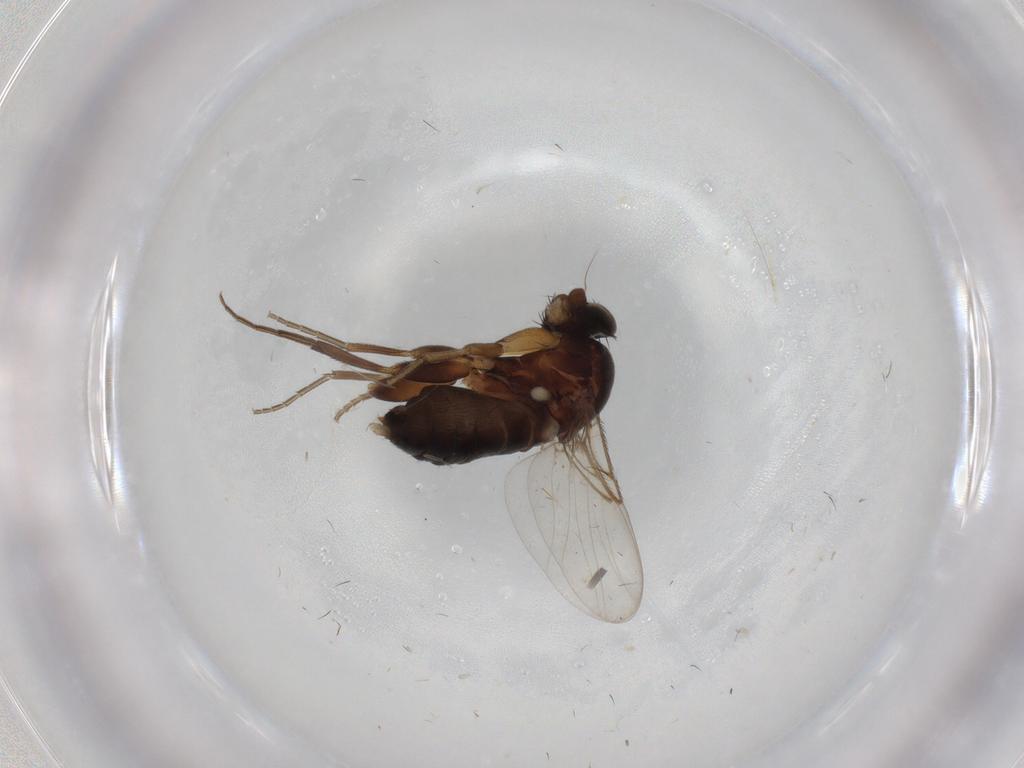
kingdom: Animalia
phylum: Arthropoda
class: Insecta
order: Diptera
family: Phoridae
